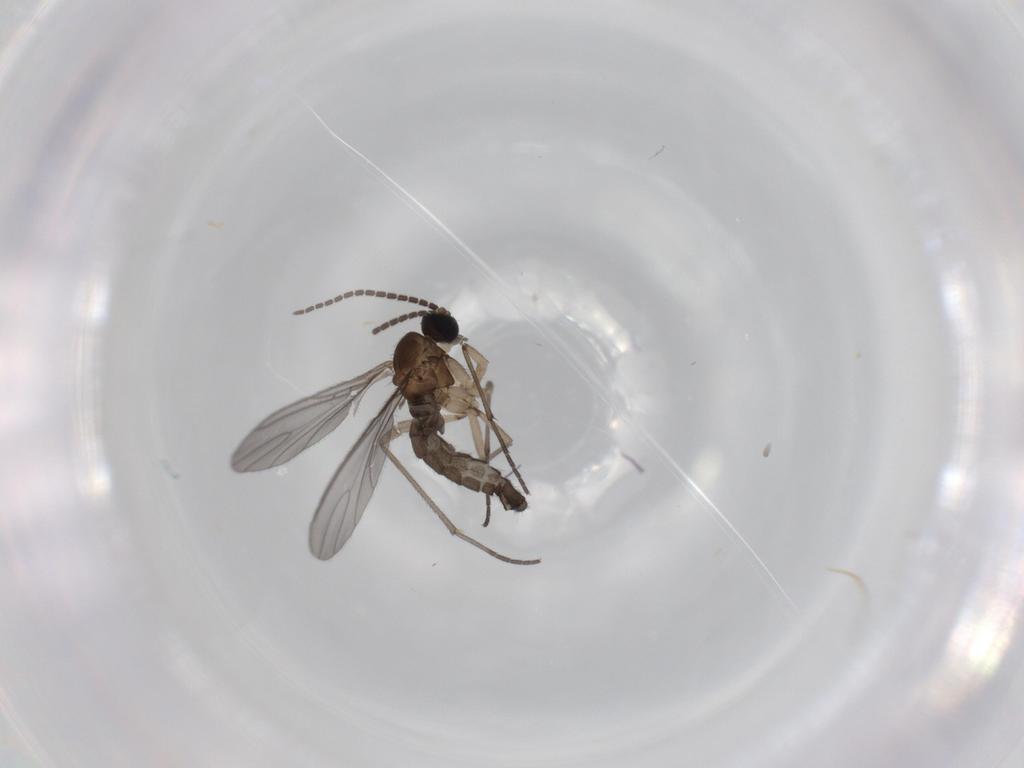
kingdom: Animalia
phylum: Arthropoda
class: Insecta
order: Diptera
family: Sciaridae
